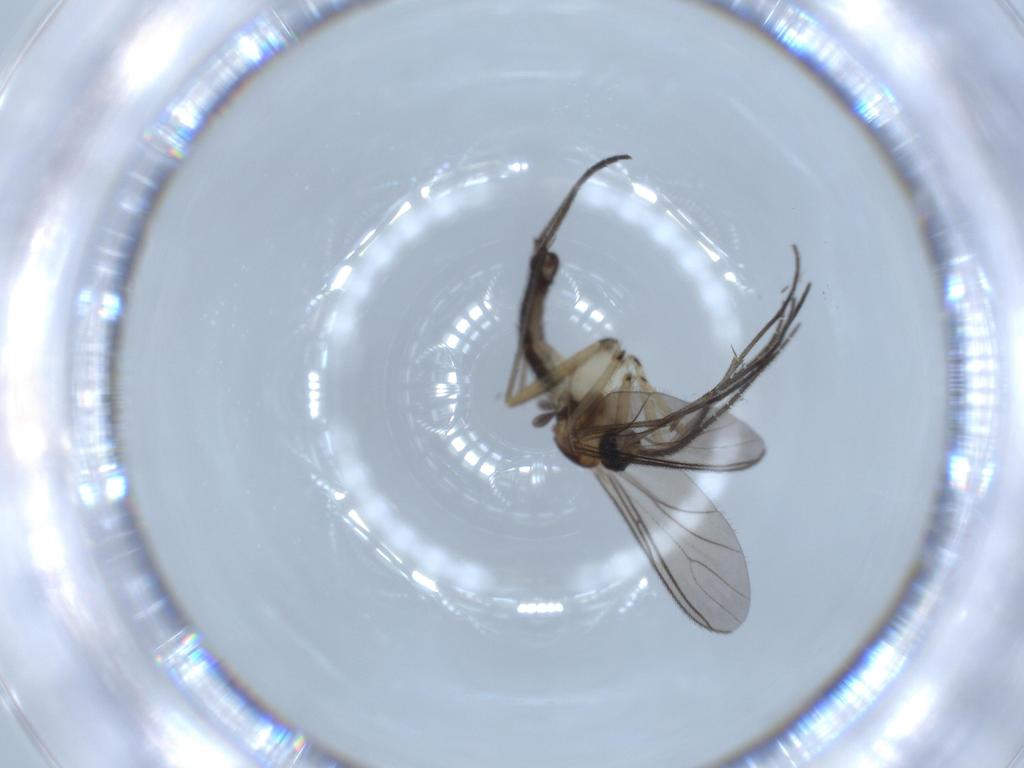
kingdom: Animalia
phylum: Arthropoda
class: Insecta
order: Diptera
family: Sciaridae
